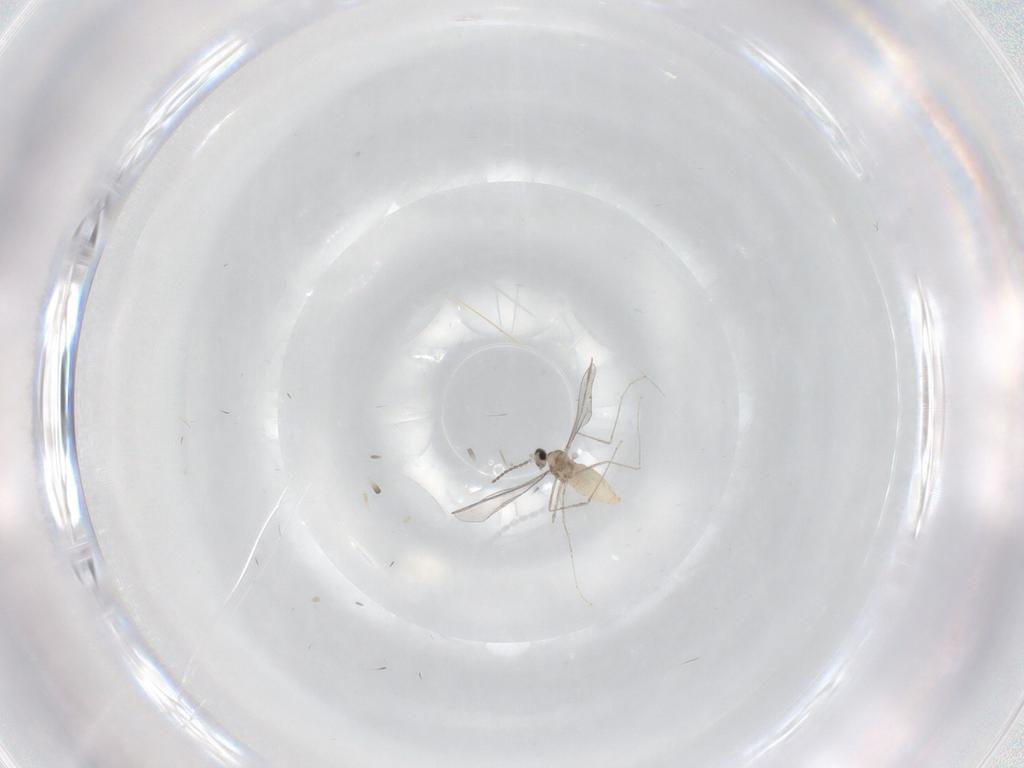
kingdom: Animalia
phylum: Arthropoda
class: Insecta
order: Diptera
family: Cecidomyiidae
